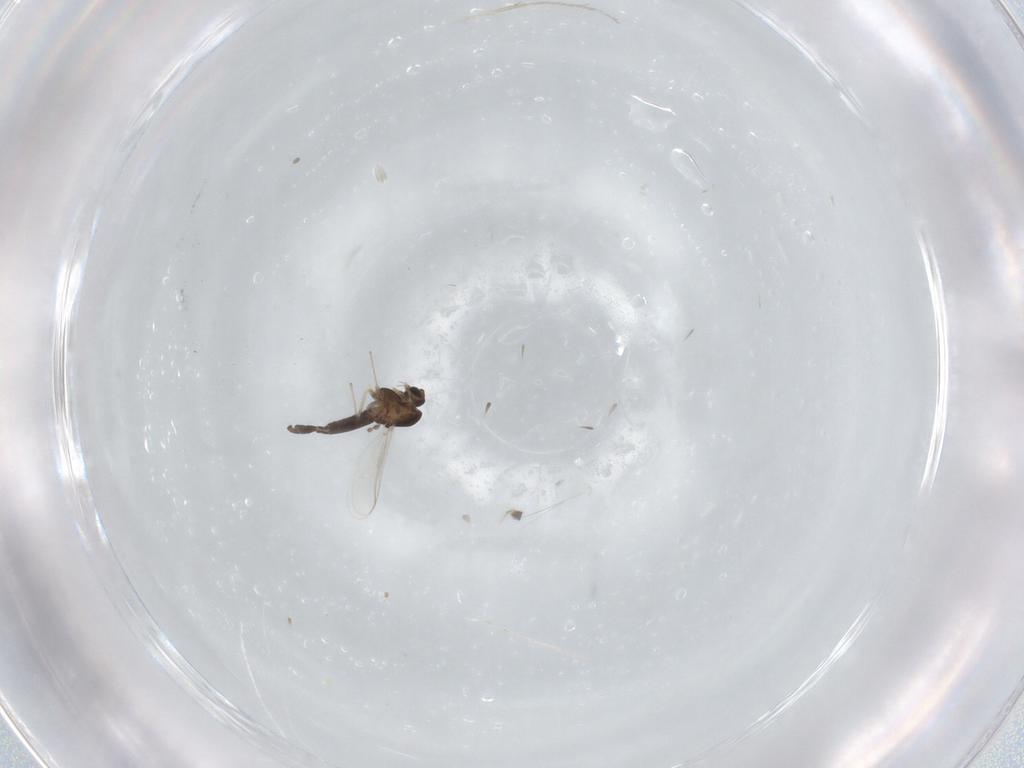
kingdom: Animalia
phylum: Arthropoda
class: Insecta
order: Diptera
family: Chironomidae
